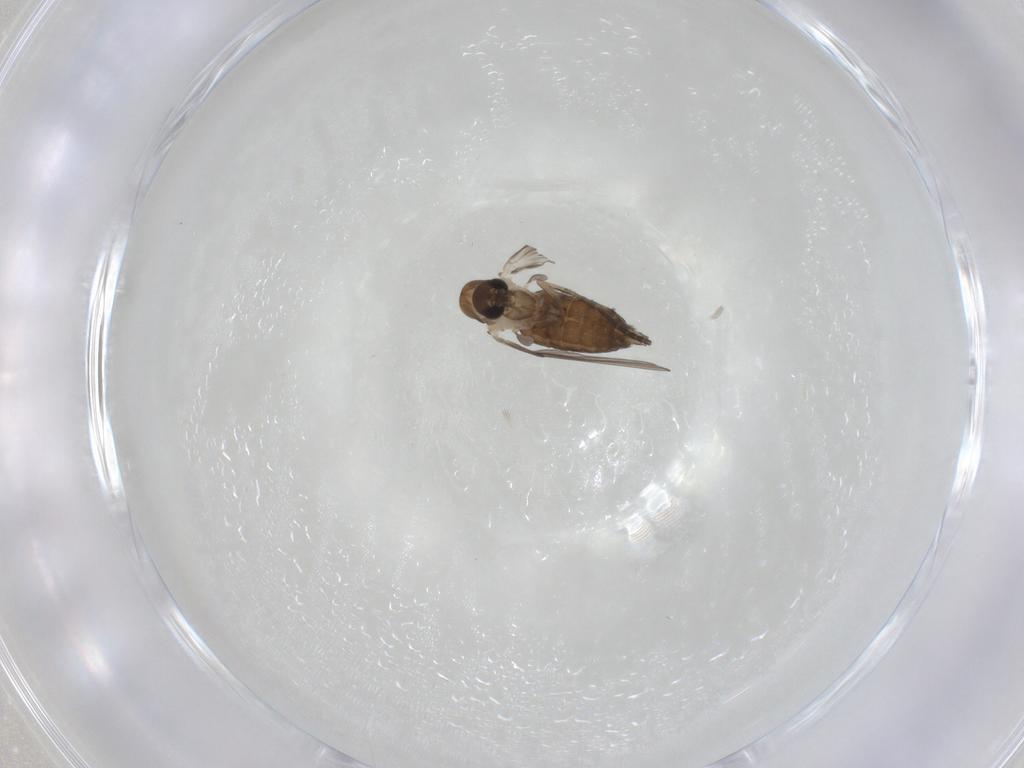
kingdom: Animalia
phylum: Arthropoda
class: Insecta
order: Diptera
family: Psychodidae
